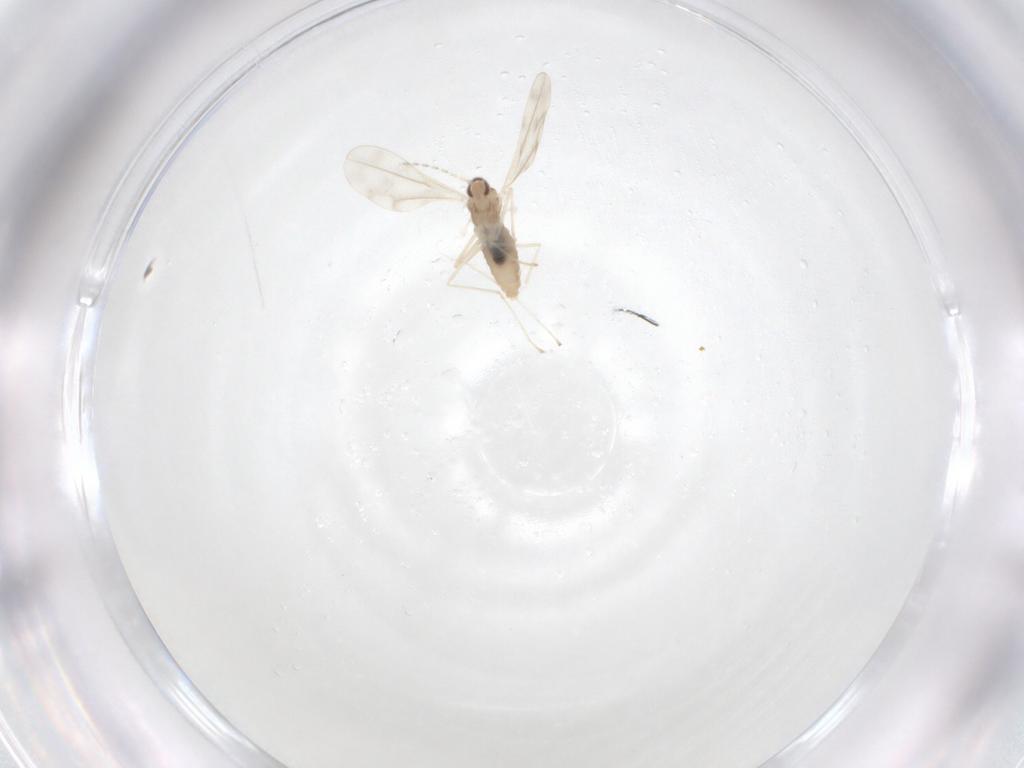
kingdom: Animalia
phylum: Arthropoda
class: Insecta
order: Diptera
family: Cecidomyiidae
